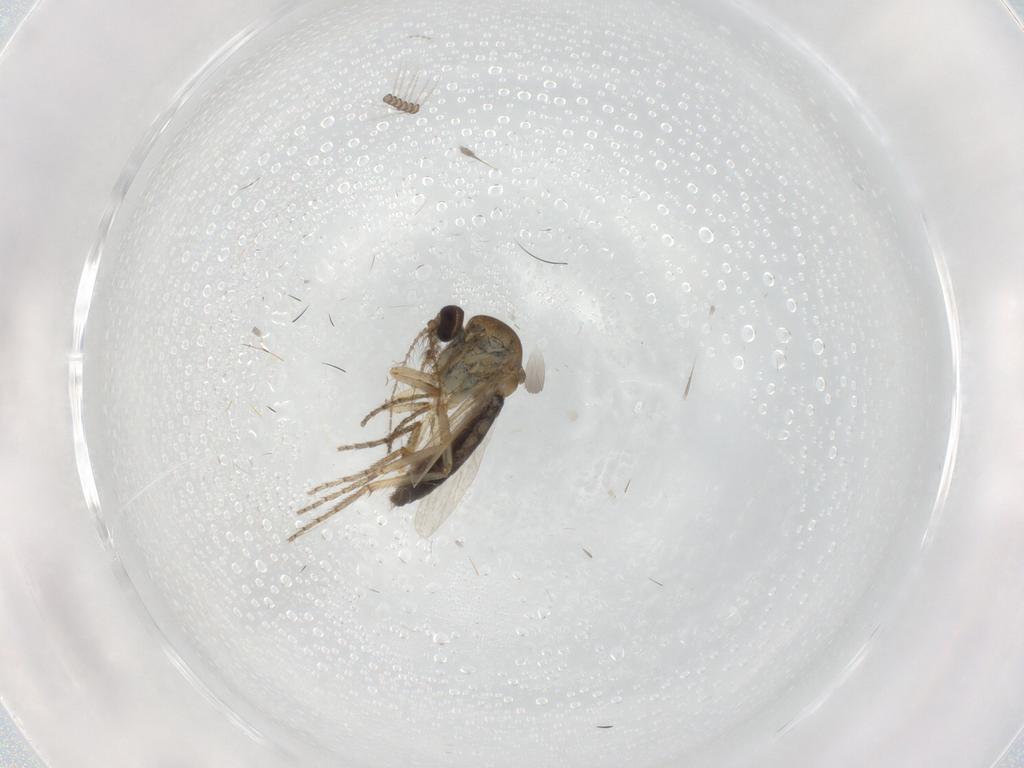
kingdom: Animalia
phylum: Arthropoda
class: Insecta
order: Diptera
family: Ceratopogonidae
